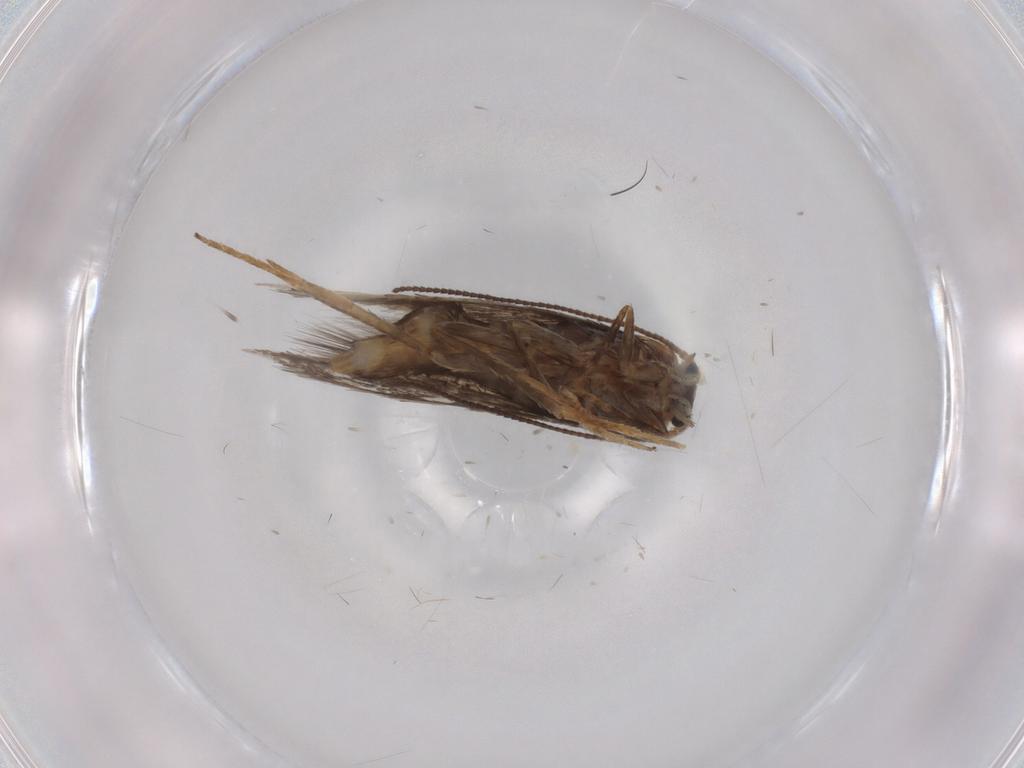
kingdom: Animalia
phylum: Arthropoda
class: Insecta
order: Lepidoptera
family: Nepticulidae
